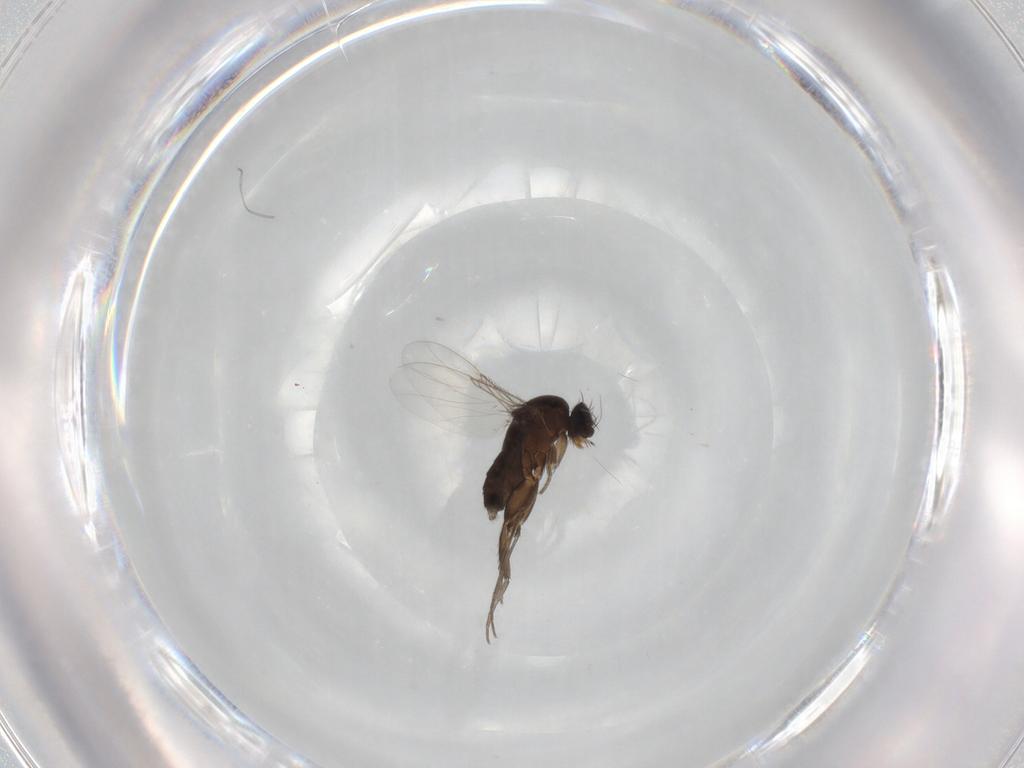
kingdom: Animalia
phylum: Arthropoda
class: Insecta
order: Diptera
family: Phoridae
